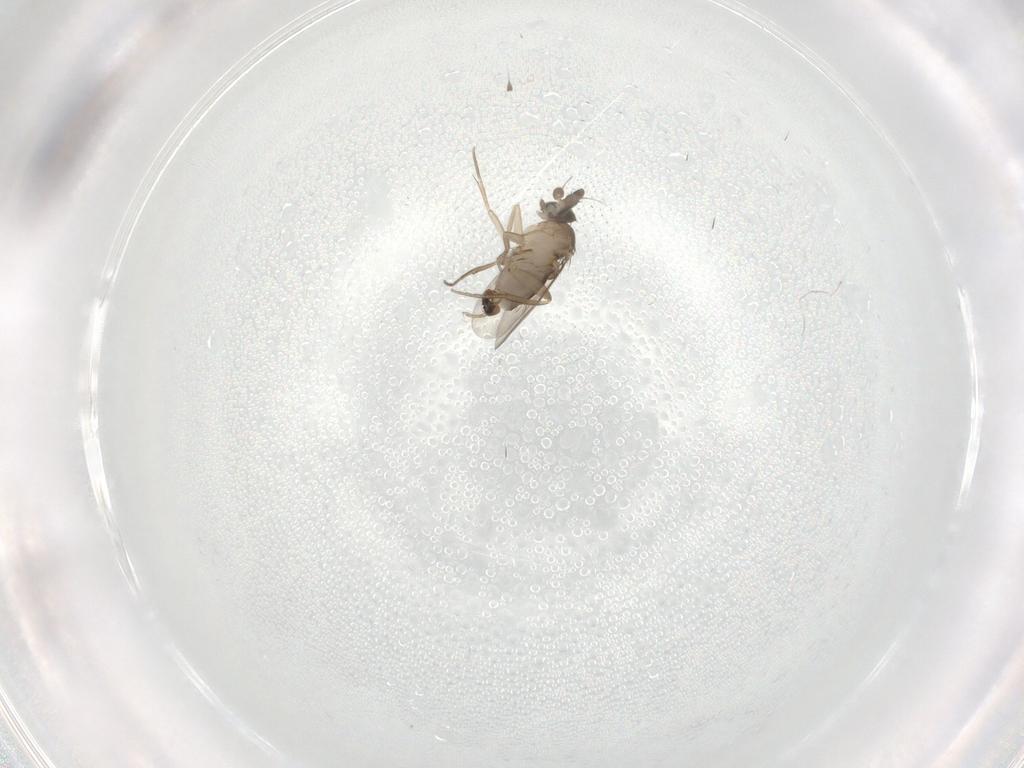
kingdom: Animalia
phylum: Arthropoda
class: Insecta
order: Diptera
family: Phoridae
